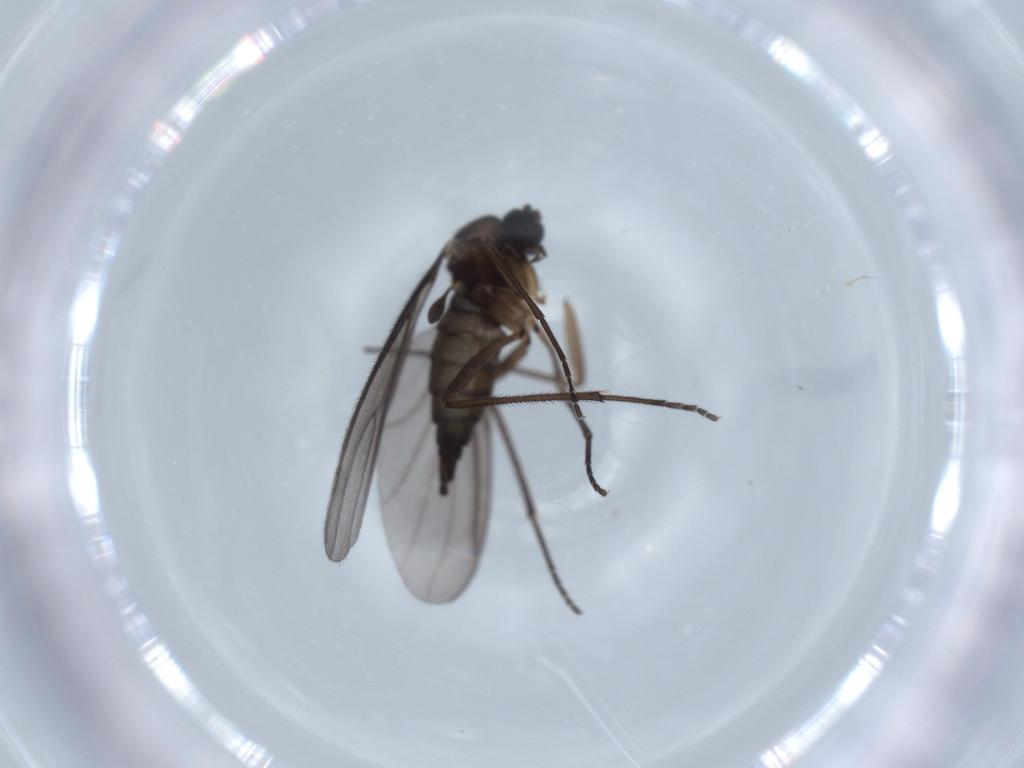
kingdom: Animalia
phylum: Arthropoda
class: Insecta
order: Diptera
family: Sciaridae
